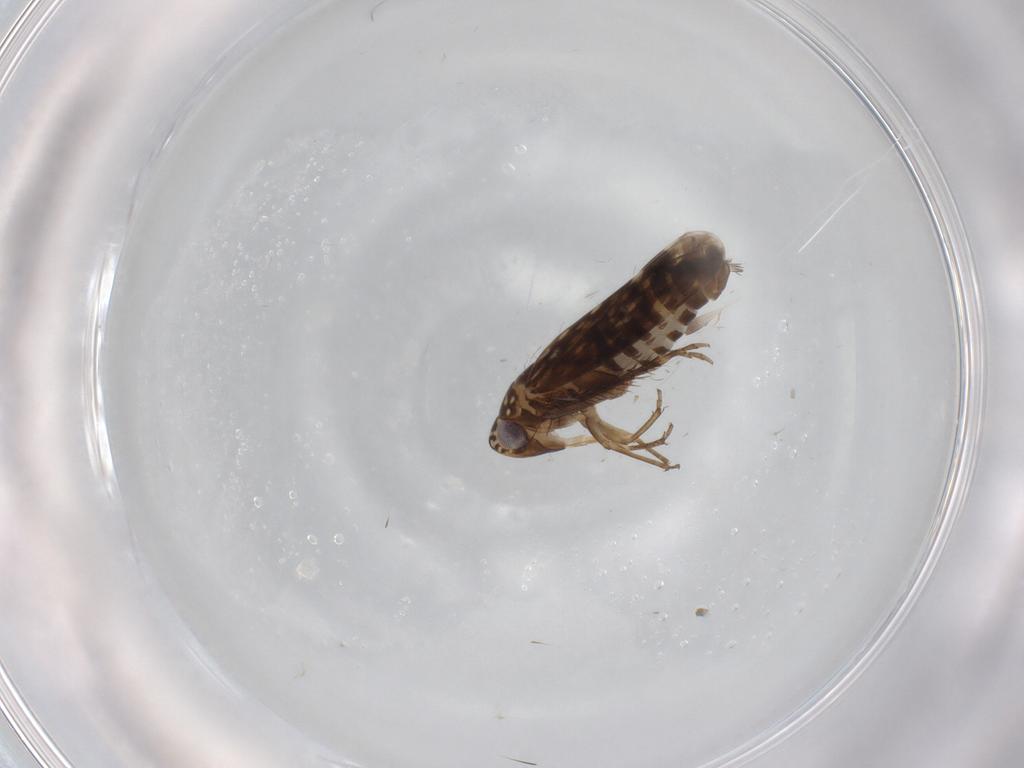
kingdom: Animalia
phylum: Arthropoda
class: Insecta
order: Hemiptera
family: Cicadellidae
